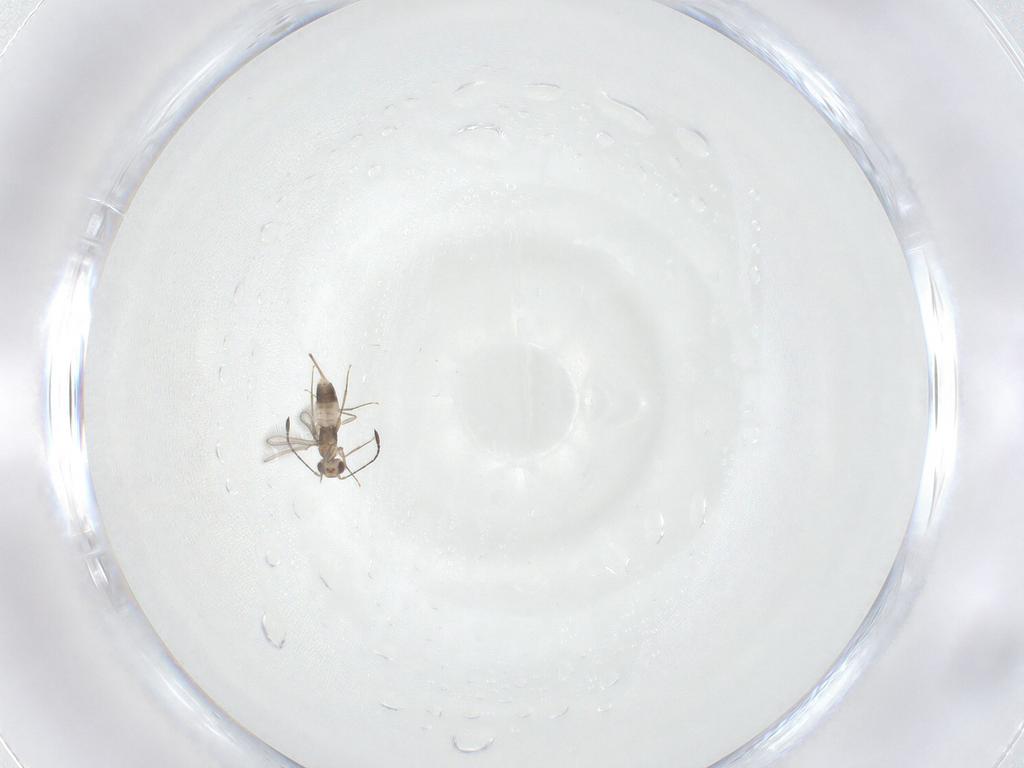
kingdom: Animalia
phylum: Arthropoda
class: Insecta
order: Hymenoptera
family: Mymaridae
